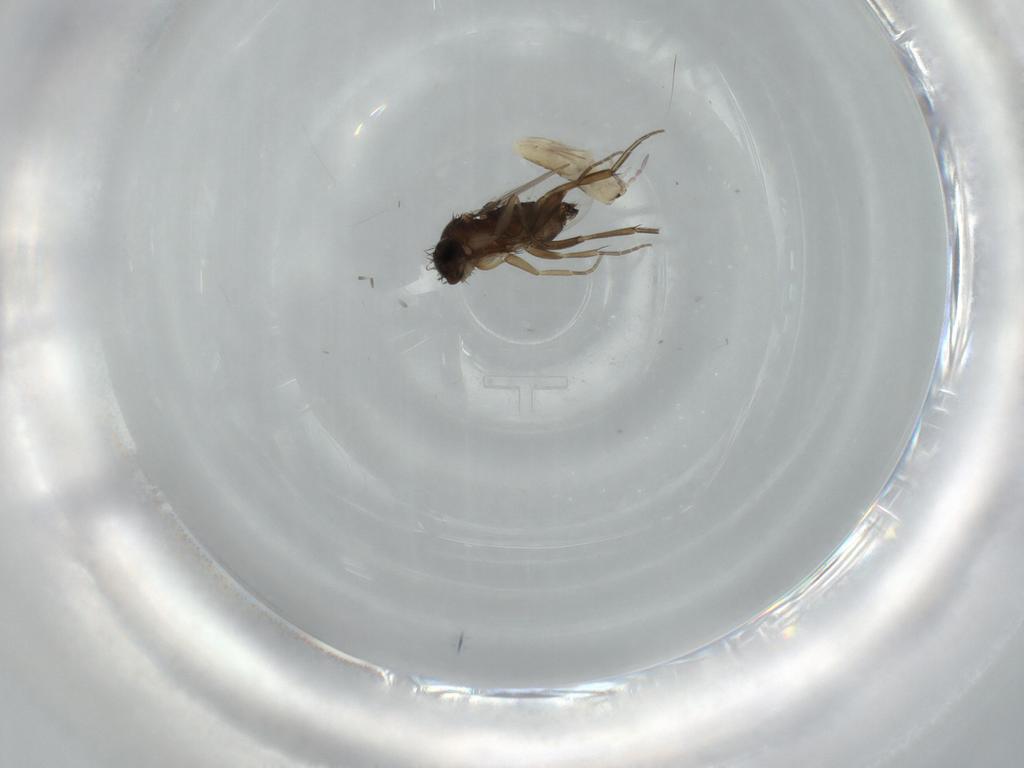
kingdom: Animalia
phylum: Arthropoda
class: Insecta
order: Diptera
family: Phoridae
